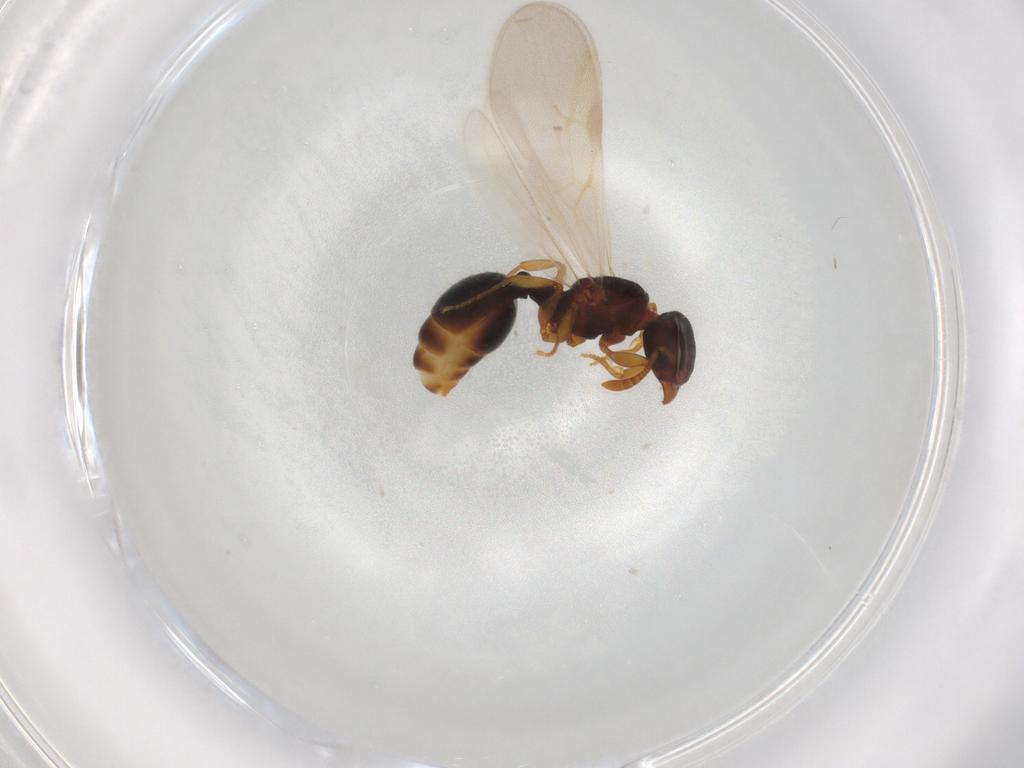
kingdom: Animalia
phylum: Arthropoda
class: Insecta
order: Hymenoptera
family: Formicidae
